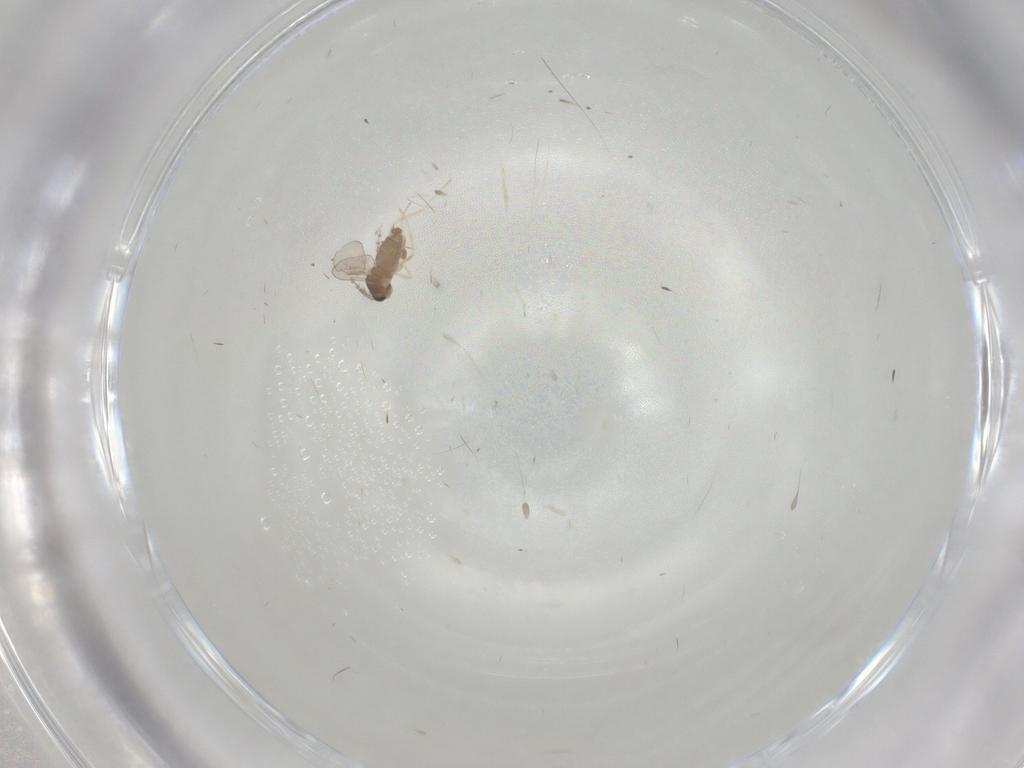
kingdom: Animalia
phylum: Arthropoda
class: Insecta
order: Diptera
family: Cecidomyiidae
